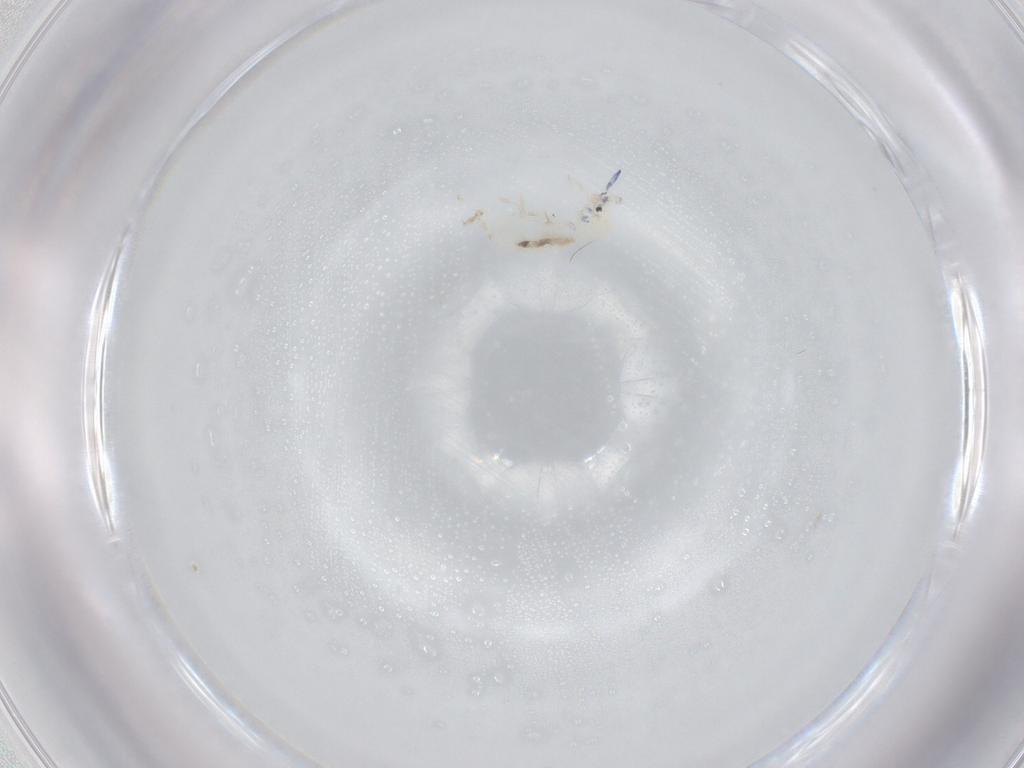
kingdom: Animalia
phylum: Arthropoda
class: Collembola
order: Entomobryomorpha
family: Entomobryidae
